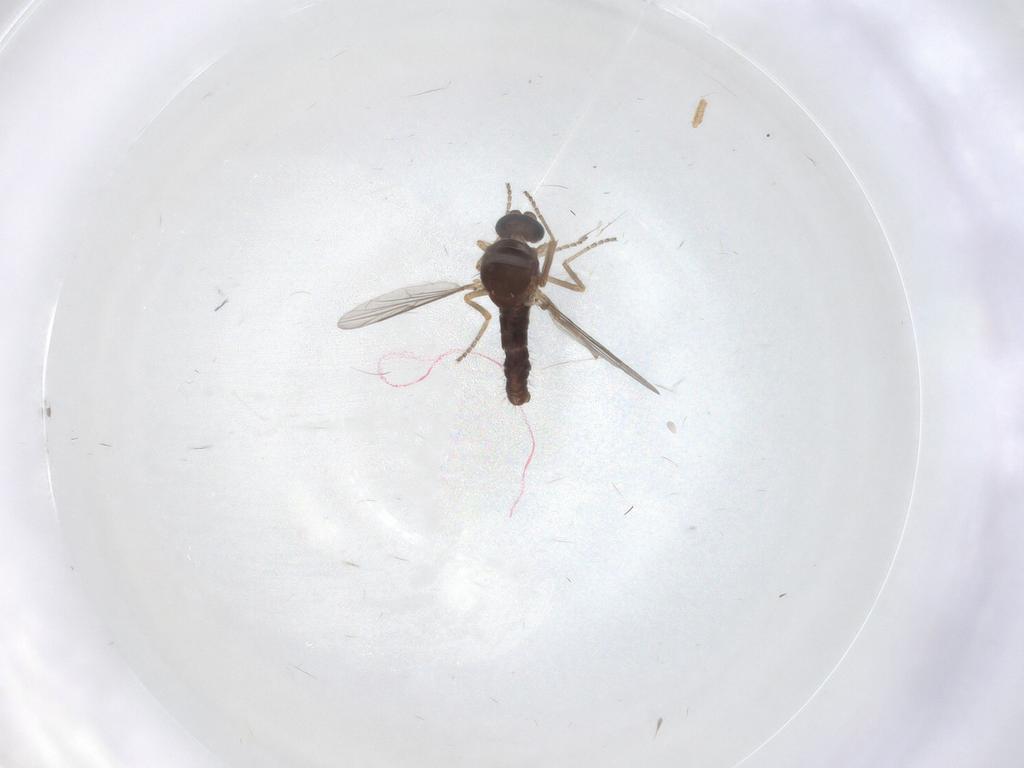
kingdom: Animalia
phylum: Arthropoda
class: Insecta
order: Diptera
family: Ceratopogonidae
